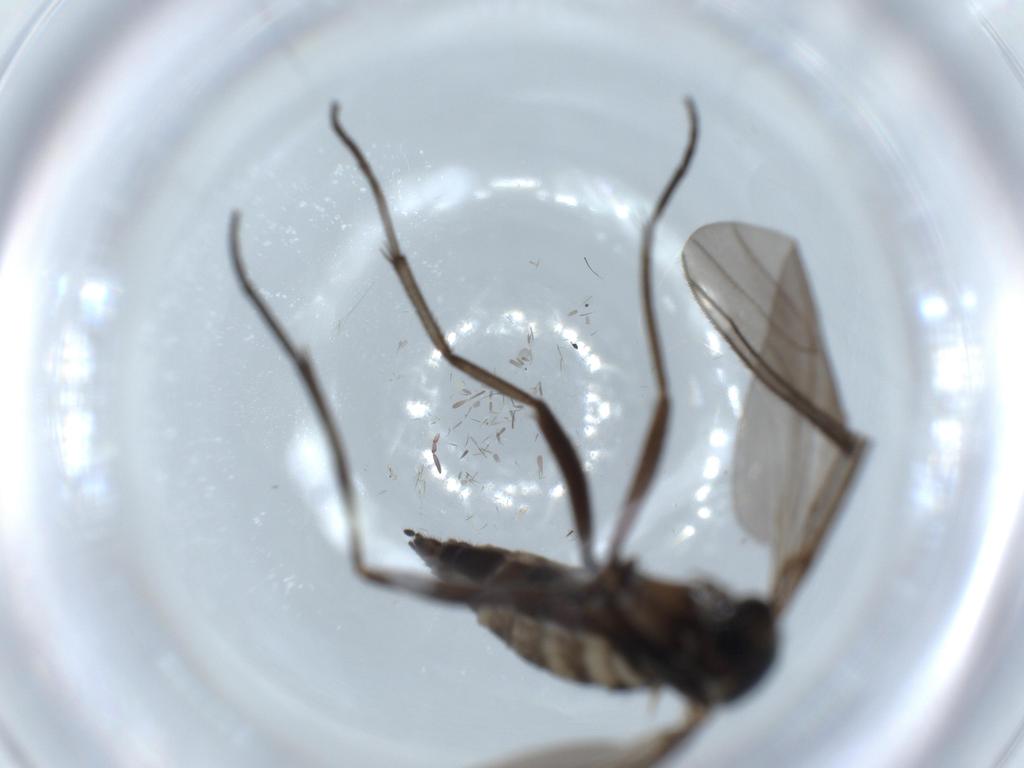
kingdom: Animalia
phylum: Arthropoda
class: Insecta
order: Diptera
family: Sciaridae
